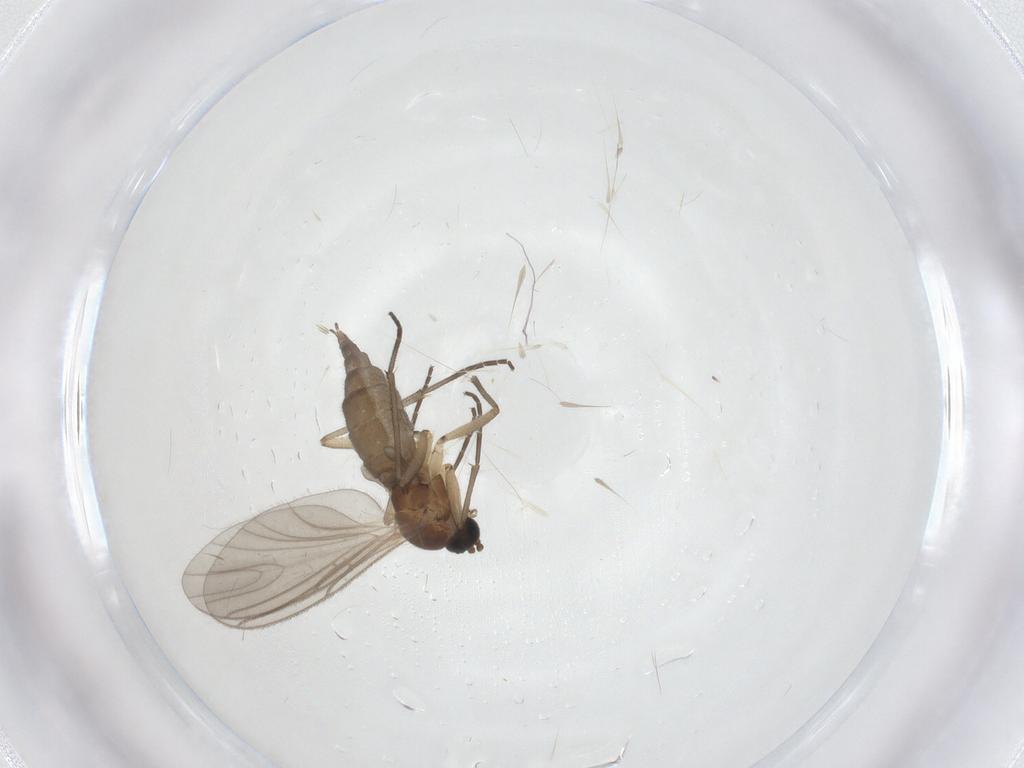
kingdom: Animalia
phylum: Arthropoda
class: Insecta
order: Diptera
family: Sciaridae
